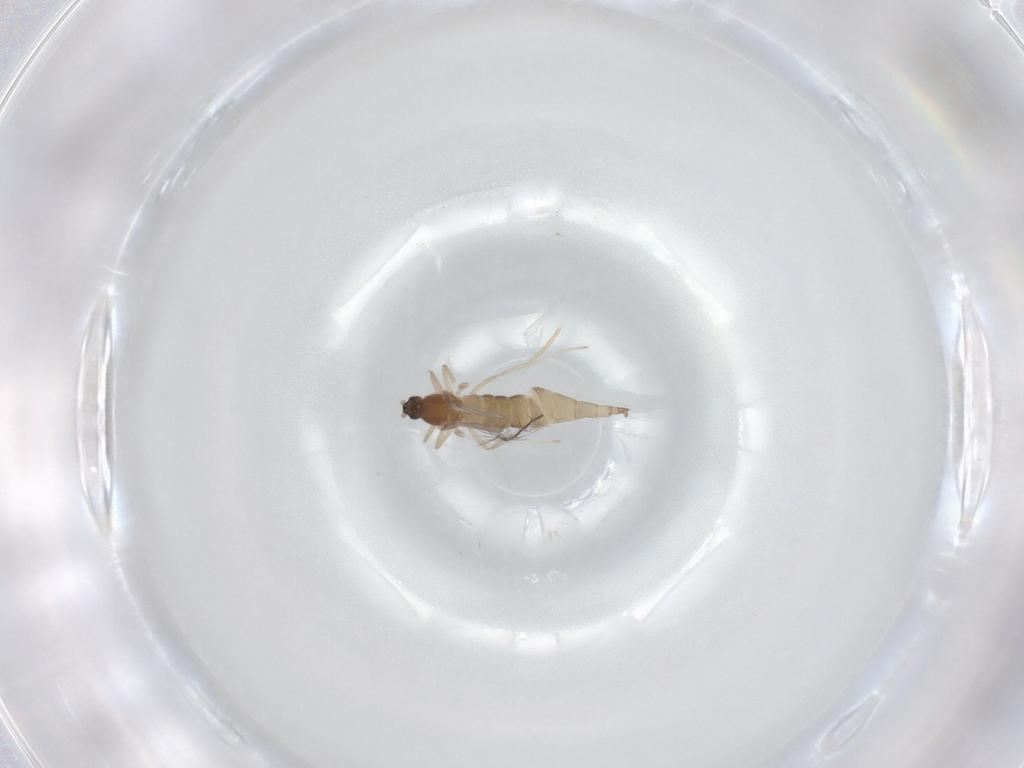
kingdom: Animalia
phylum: Arthropoda
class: Insecta
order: Diptera
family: Cecidomyiidae
